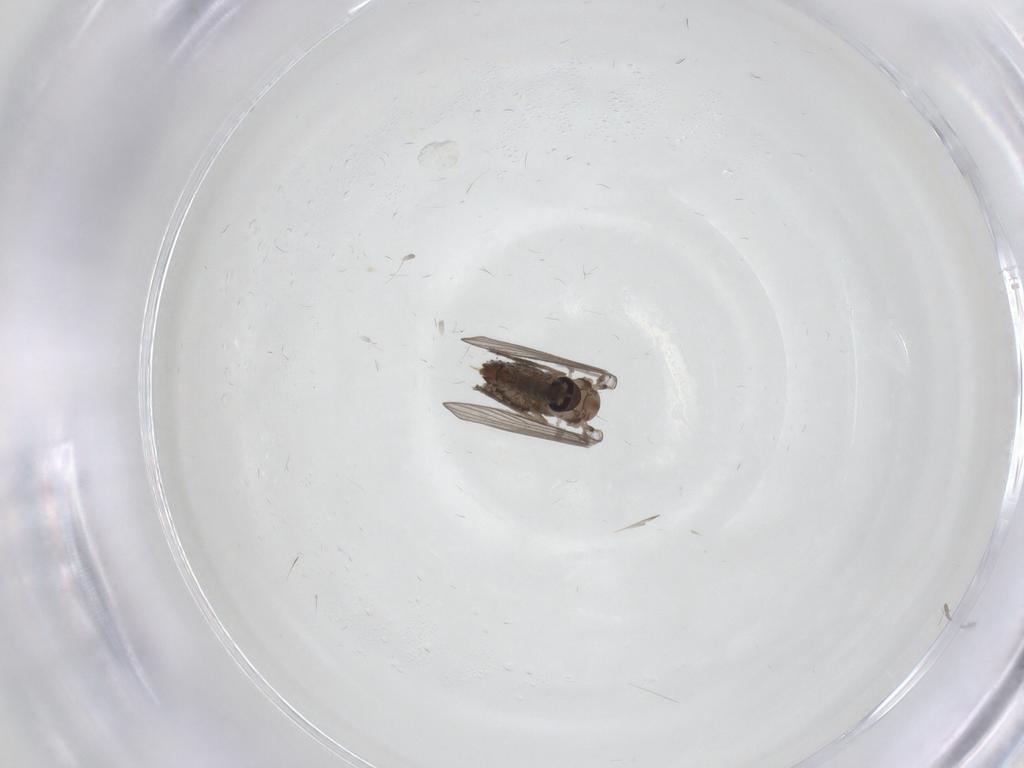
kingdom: Animalia
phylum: Arthropoda
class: Insecta
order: Diptera
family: Psychodidae
